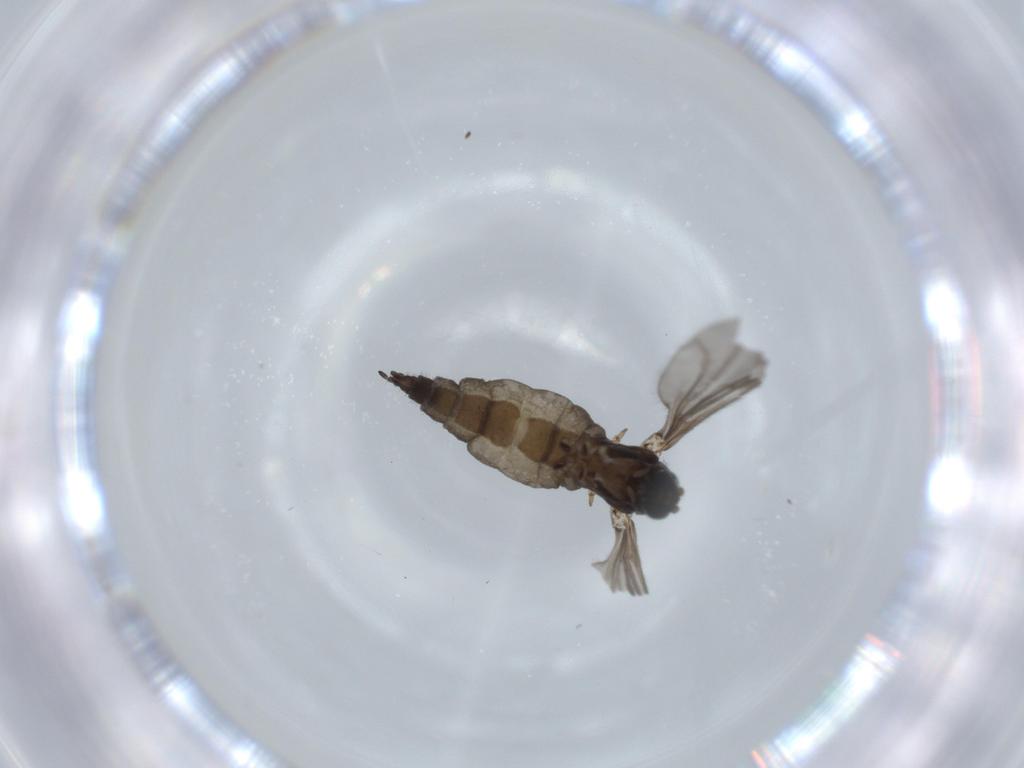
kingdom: Animalia
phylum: Arthropoda
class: Insecta
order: Diptera
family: Sciaridae
